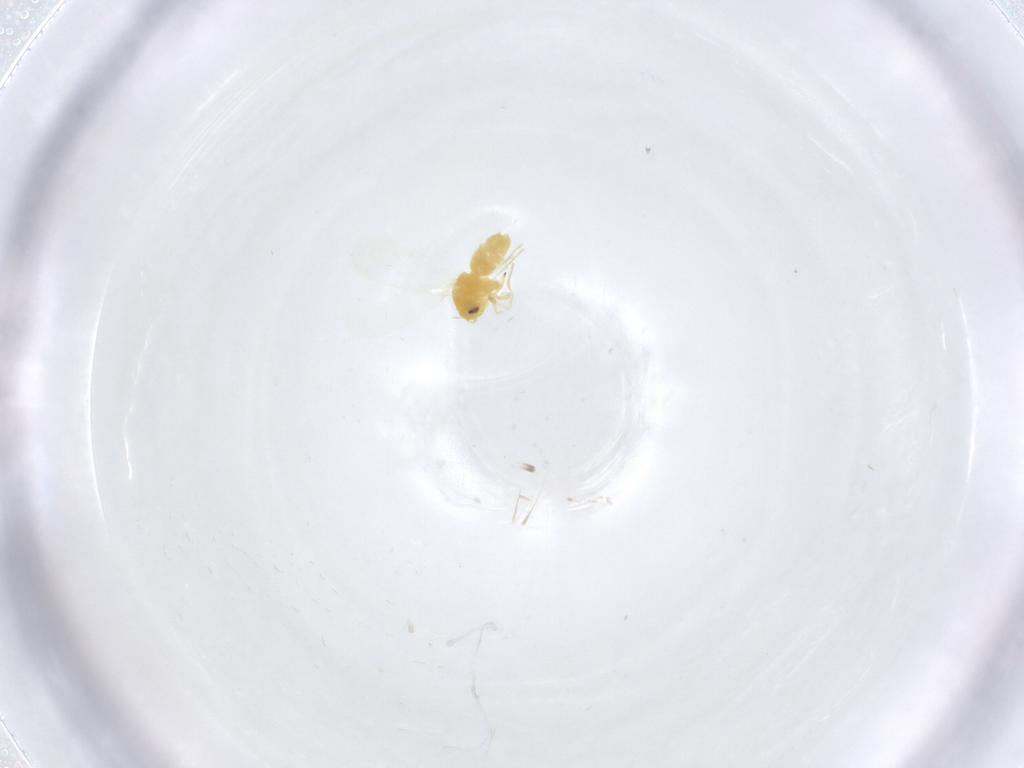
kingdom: Animalia
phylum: Arthropoda
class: Insecta
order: Hemiptera
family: Aleyrodidae
